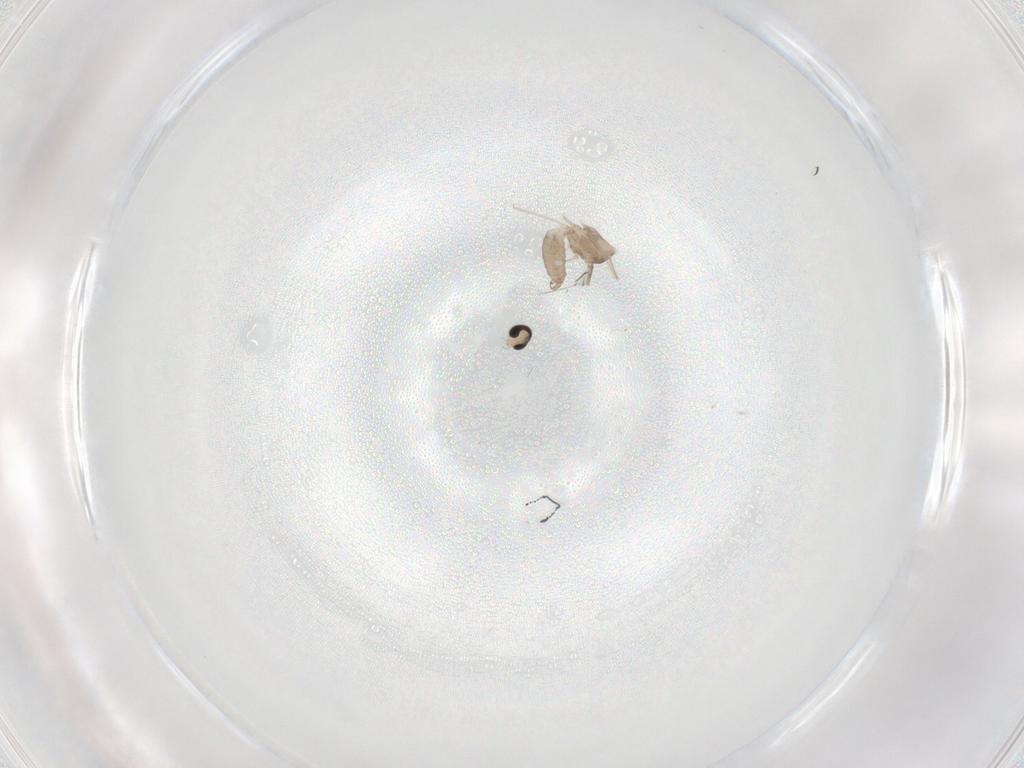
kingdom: Animalia
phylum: Arthropoda
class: Insecta
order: Diptera
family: Cecidomyiidae
